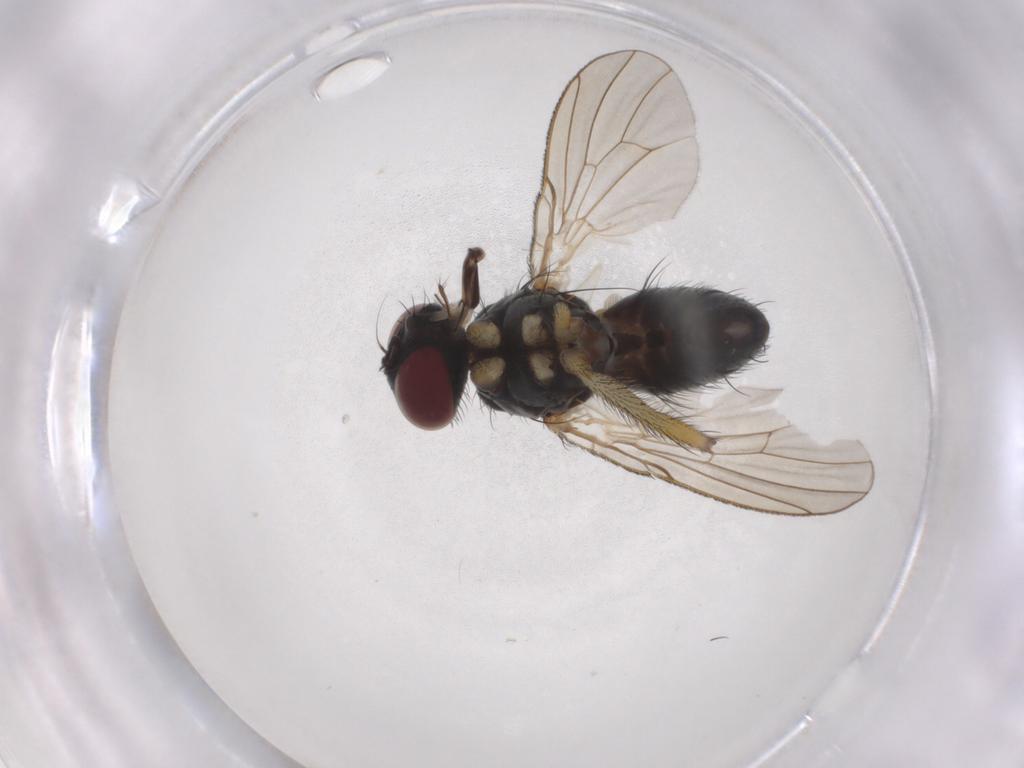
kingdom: Animalia
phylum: Arthropoda
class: Insecta
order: Diptera
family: Muscidae
